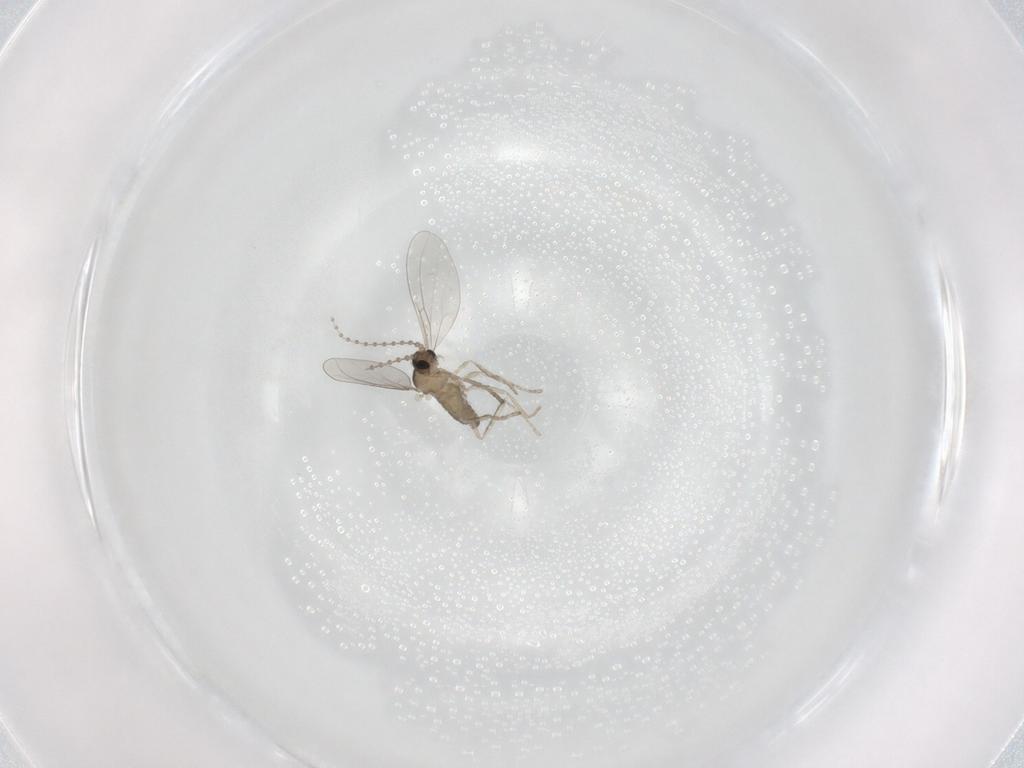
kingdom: Animalia
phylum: Arthropoda
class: Insecta
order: Diptera
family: Cecidomyiidae
